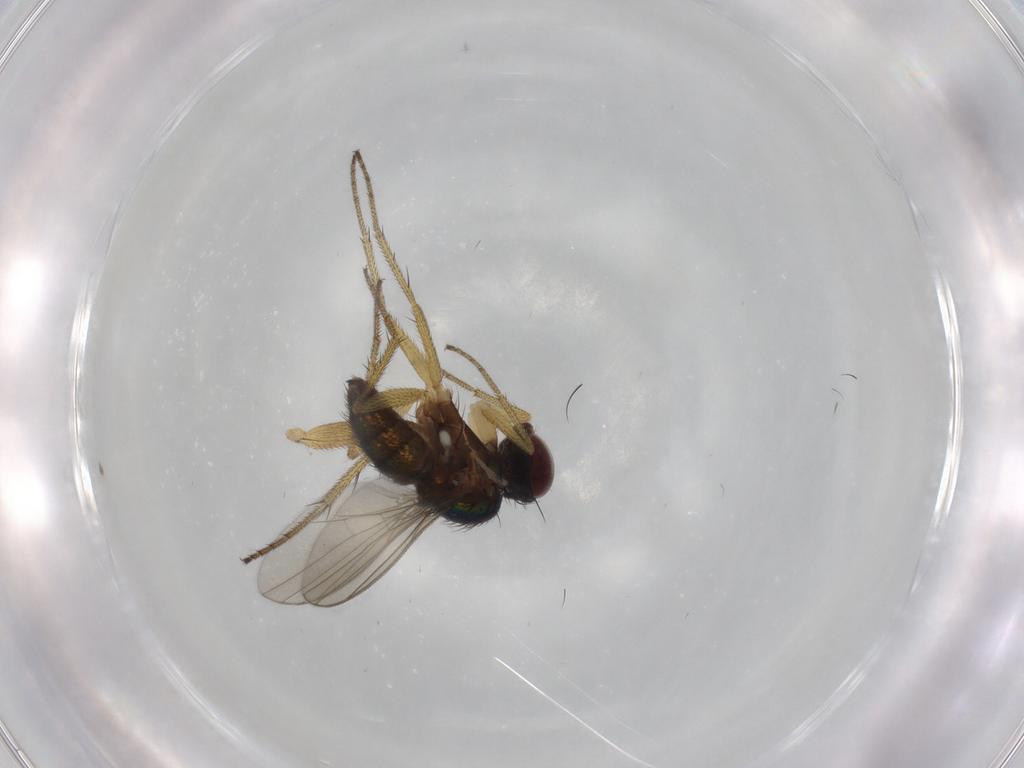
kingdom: Animalia
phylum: Arthropoda
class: Insecta
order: Diptera
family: Dolichopodidae
